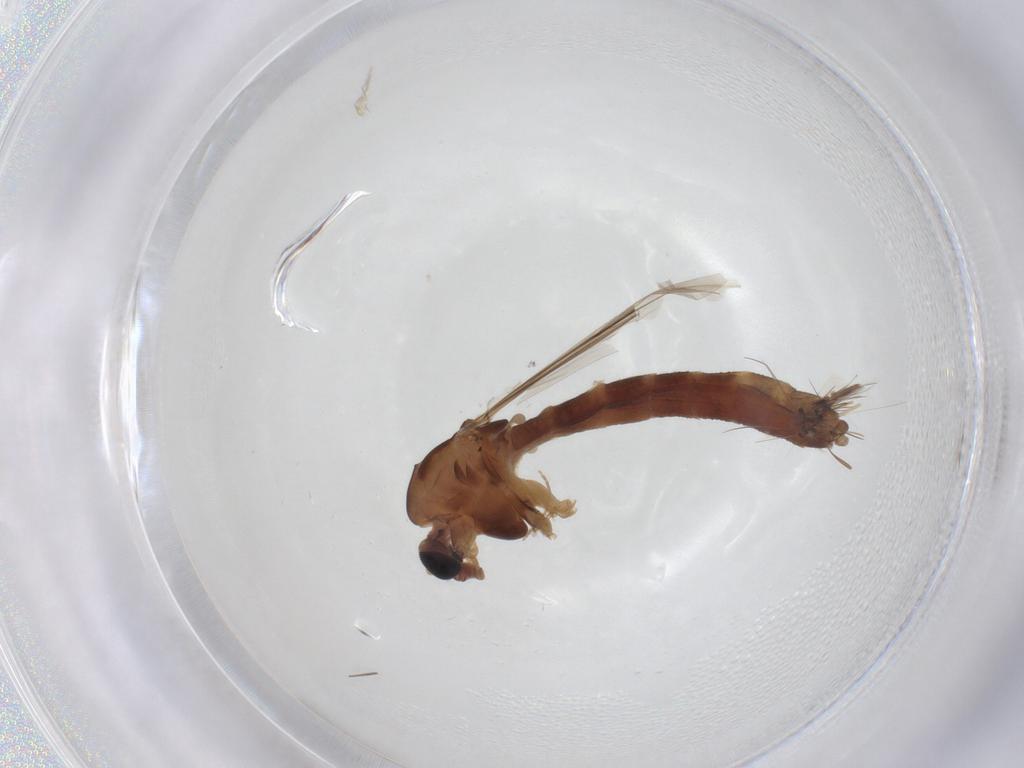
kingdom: Animalia
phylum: Arthropoda
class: Insecta
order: Diptera
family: Chironomidae
